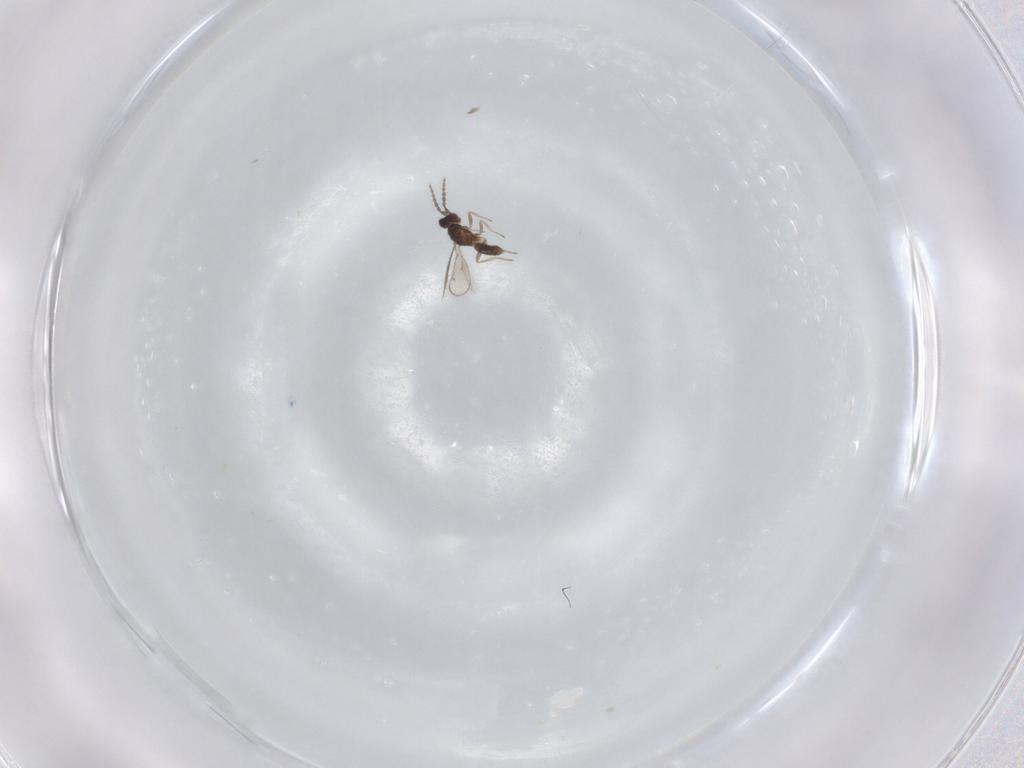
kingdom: Animalia
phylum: Arthropoda
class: Insecta
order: Hymenoptera
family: Eulophidae
